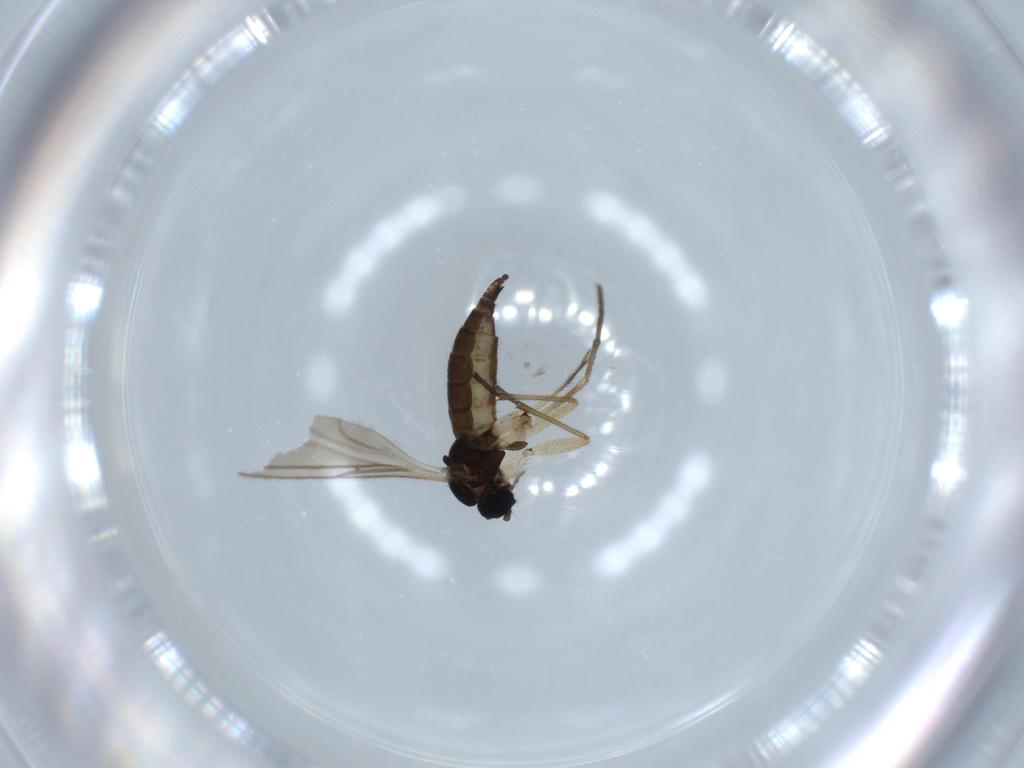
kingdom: Animalia
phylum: Arthropoda
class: Insecta
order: Diptera
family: Sciaridae
